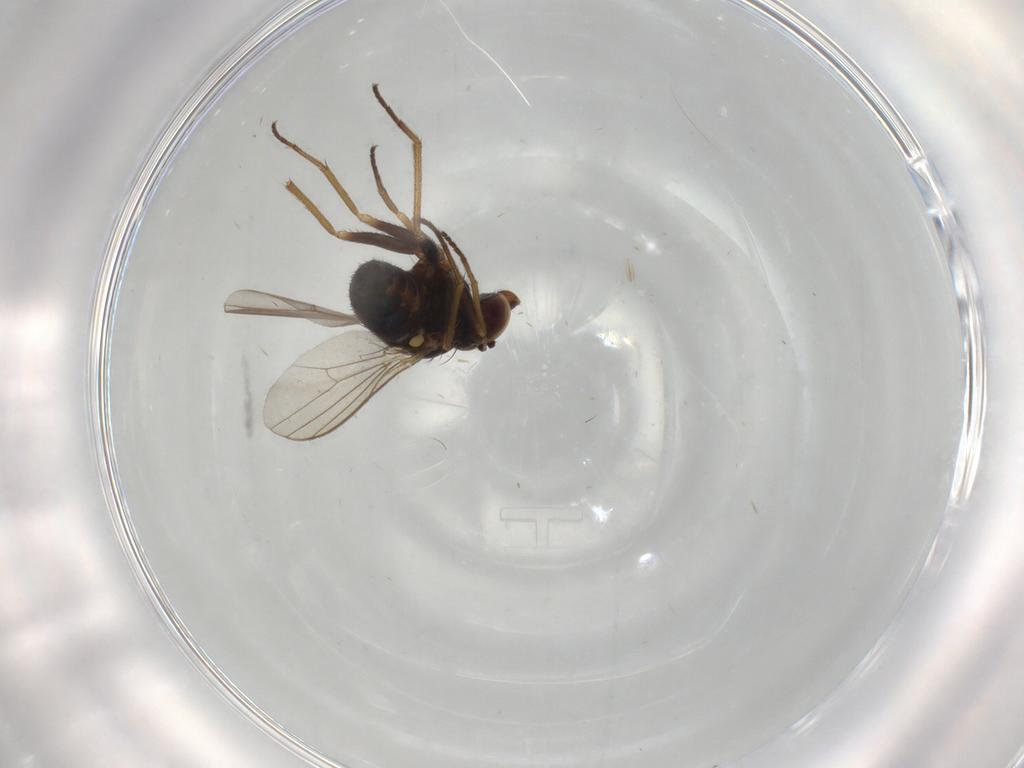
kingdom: Animalia
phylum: Arthropoda
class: Insecta
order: Diptera
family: Dolichopodidae
